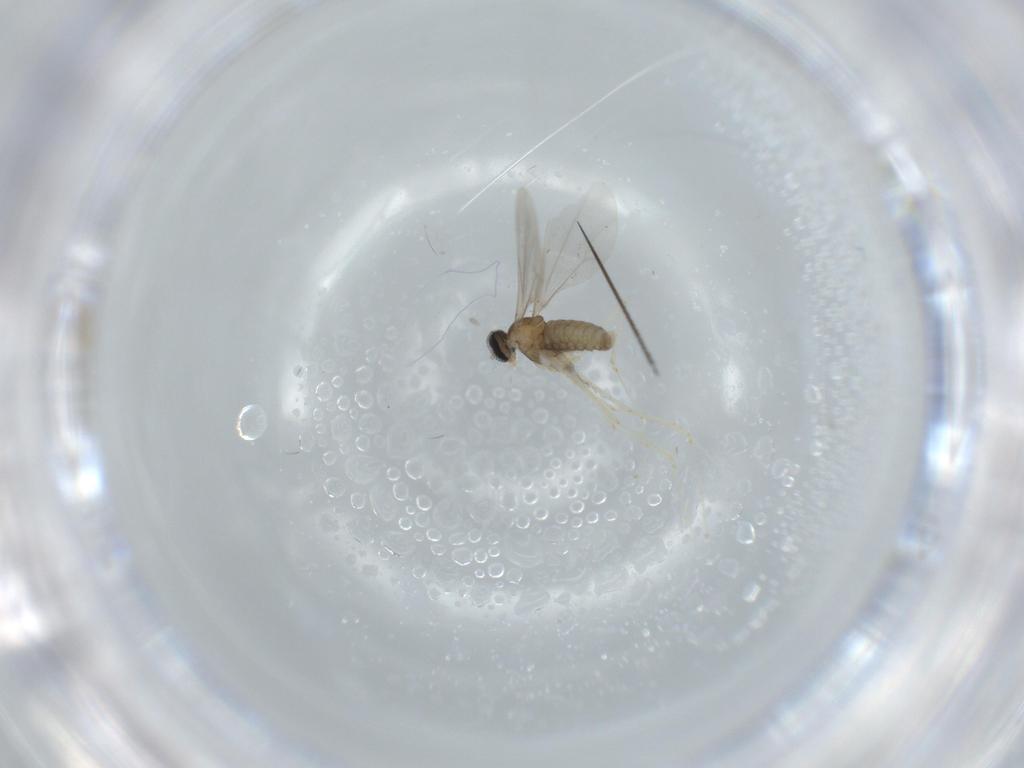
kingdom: Animalia
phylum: Arthropoda
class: Insecta
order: Diptera
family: Cecidomyiidae
